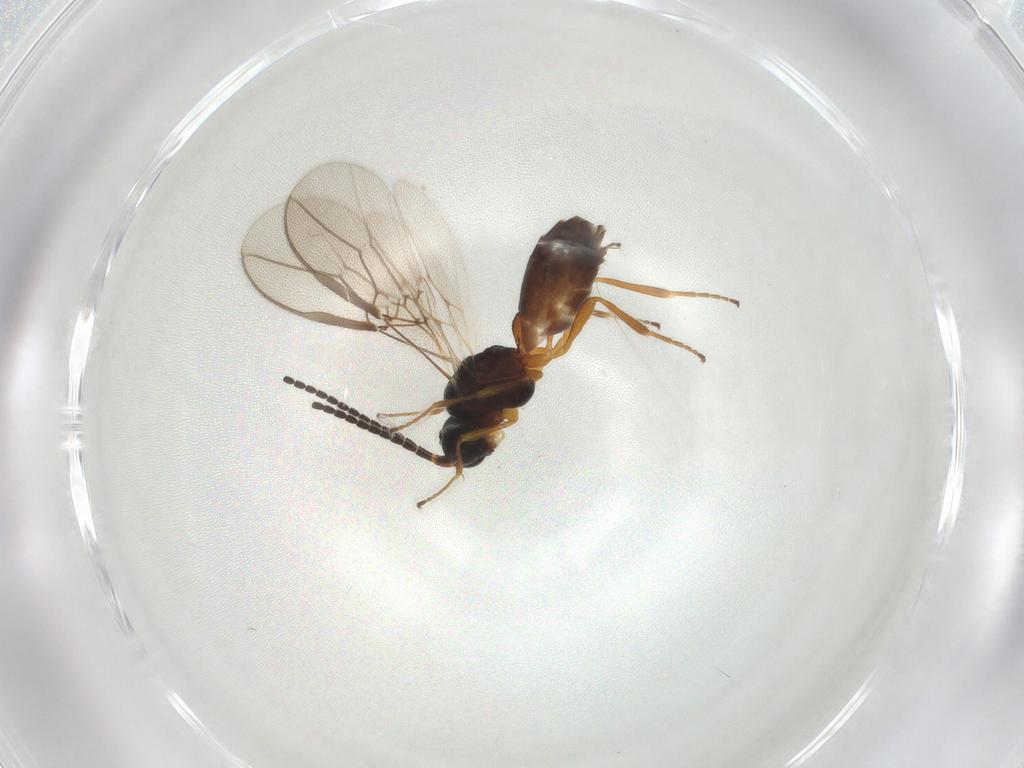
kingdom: Animalia
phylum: Arthropoda
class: Insecta
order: Hymenoptera
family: Braconidae
